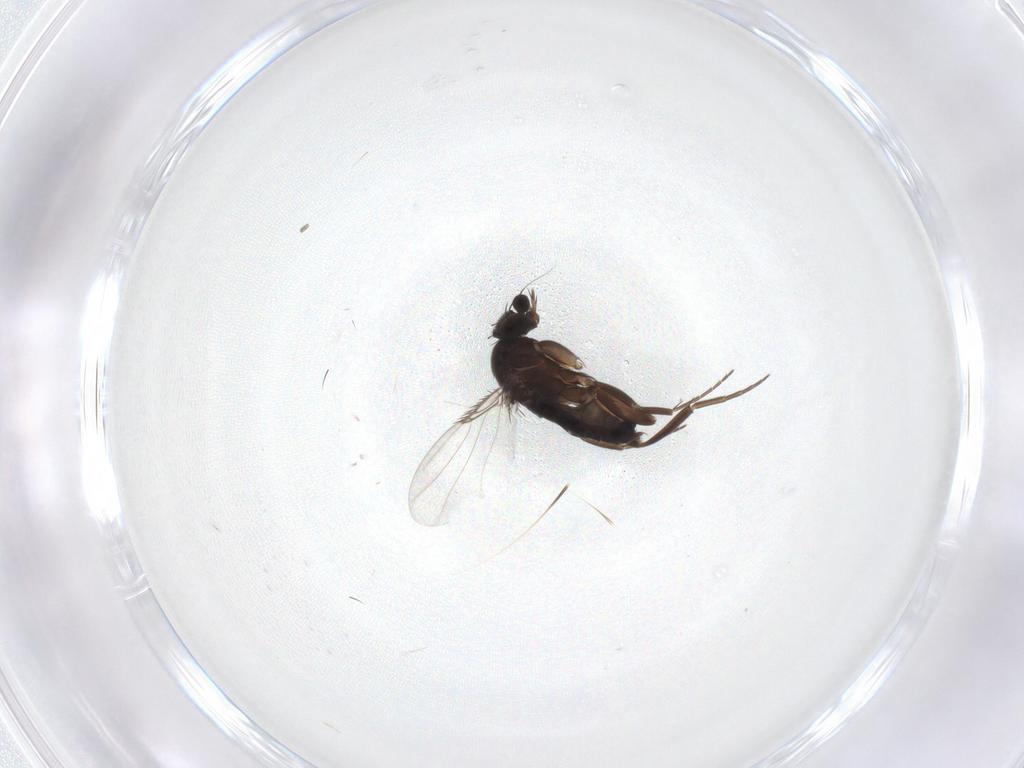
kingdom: Animalia
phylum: Arthropoda
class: Insecta
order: Diptera
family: Phoridae
